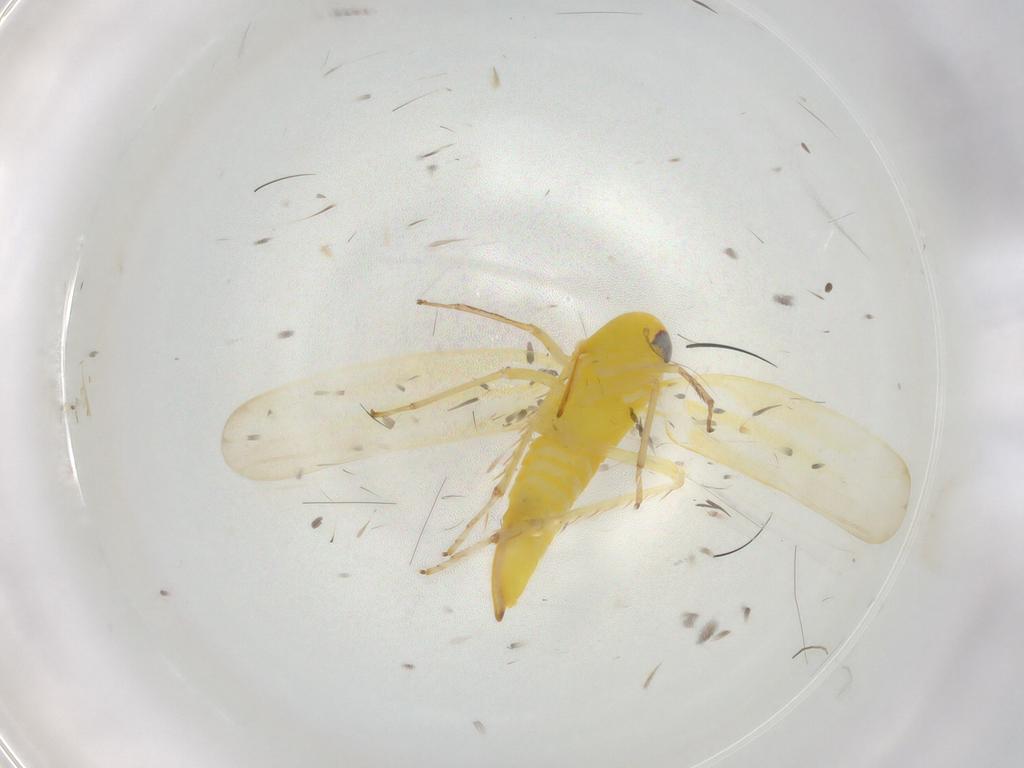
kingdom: Animalia
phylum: Arthropoda
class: Insecta
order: Hemiptera
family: Cicadellidae
